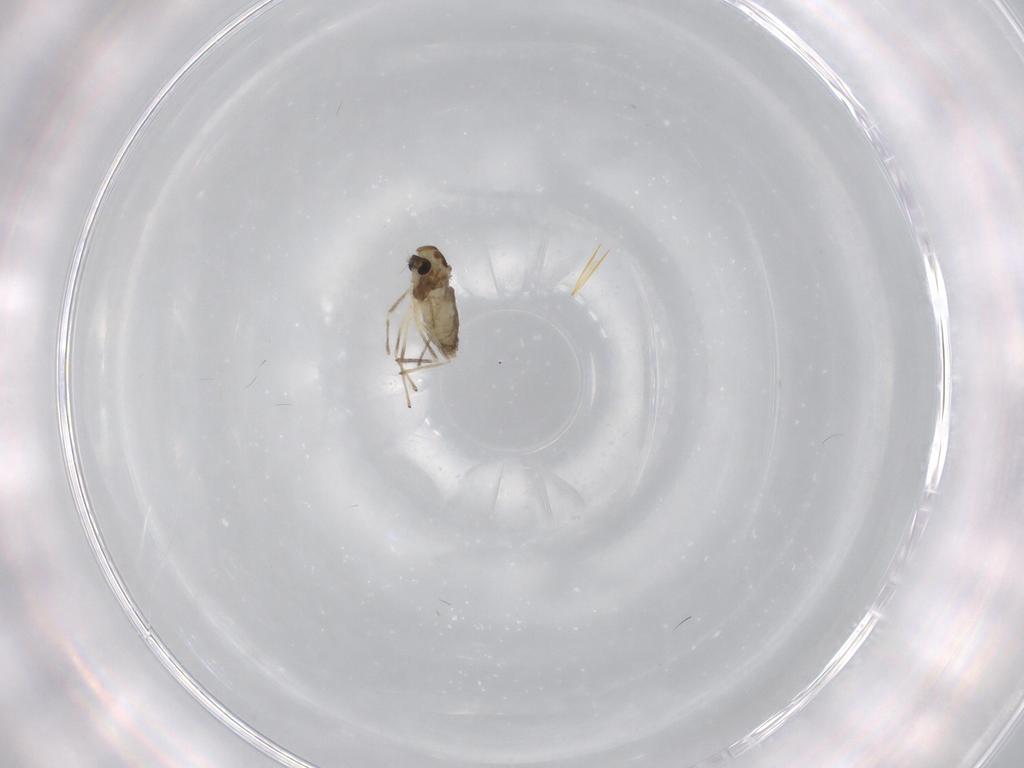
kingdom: Animalia
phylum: Arthropoda
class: Insecta
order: Diptera
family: Chironomidae
